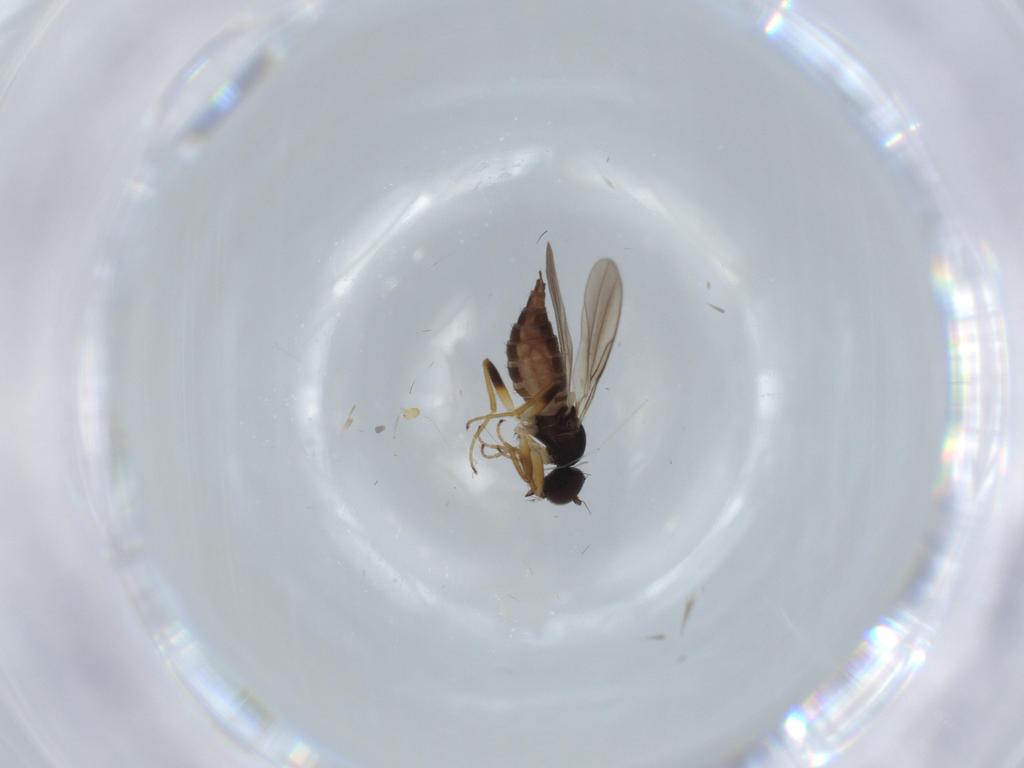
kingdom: Animalia
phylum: Arthropoda
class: Insecta
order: Diptera
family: Hybotidae
